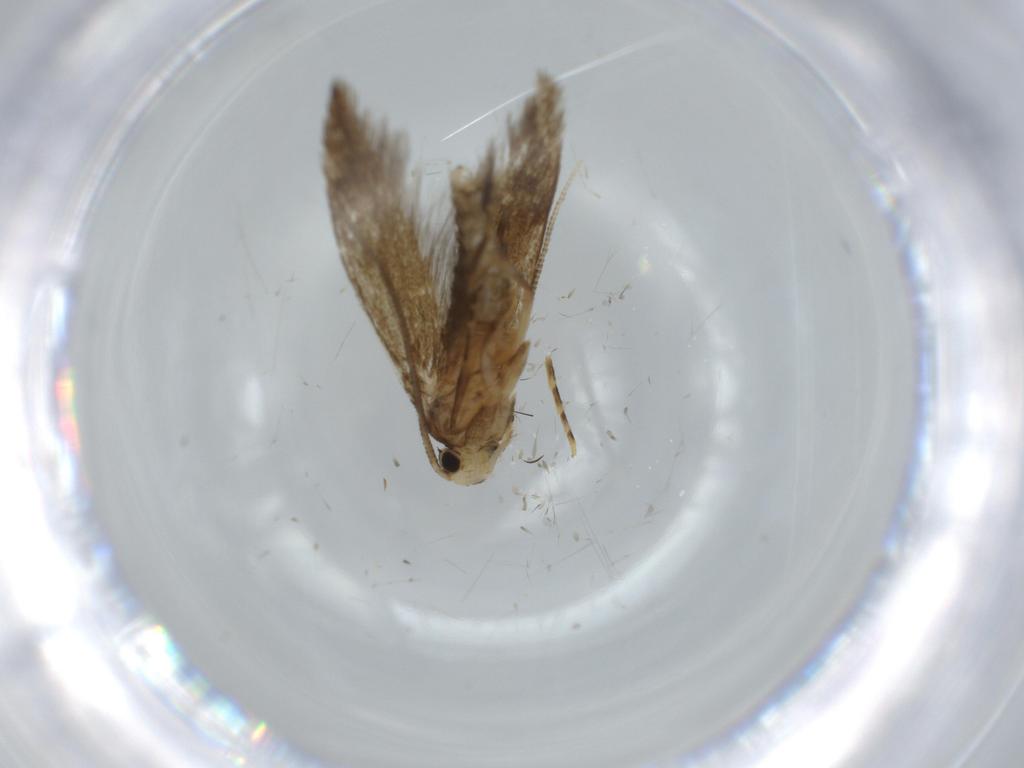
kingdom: Animalia
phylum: Arthropoda
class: Insecta
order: Lepidoptera
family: Tineidae
